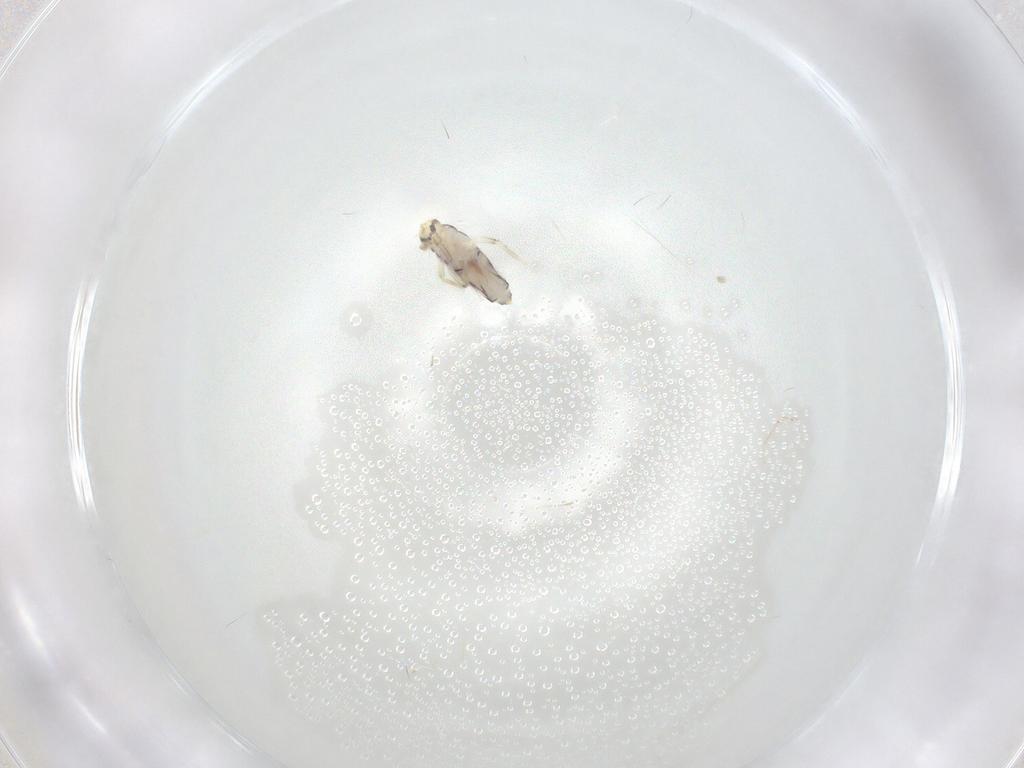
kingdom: Animalia
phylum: Arthropoda
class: Collembola
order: Entomobryomorpha
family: Entomobryidae
